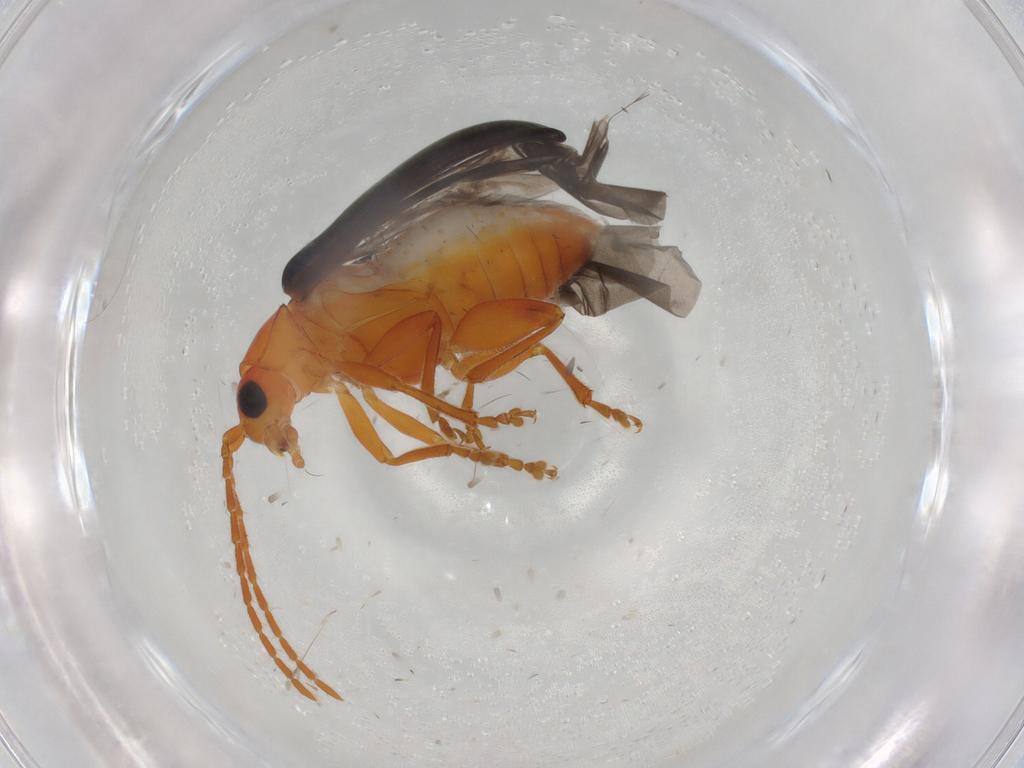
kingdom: Animalia
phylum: Arthropoda
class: Insecta
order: Coleoptera
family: Chrysomelidae
